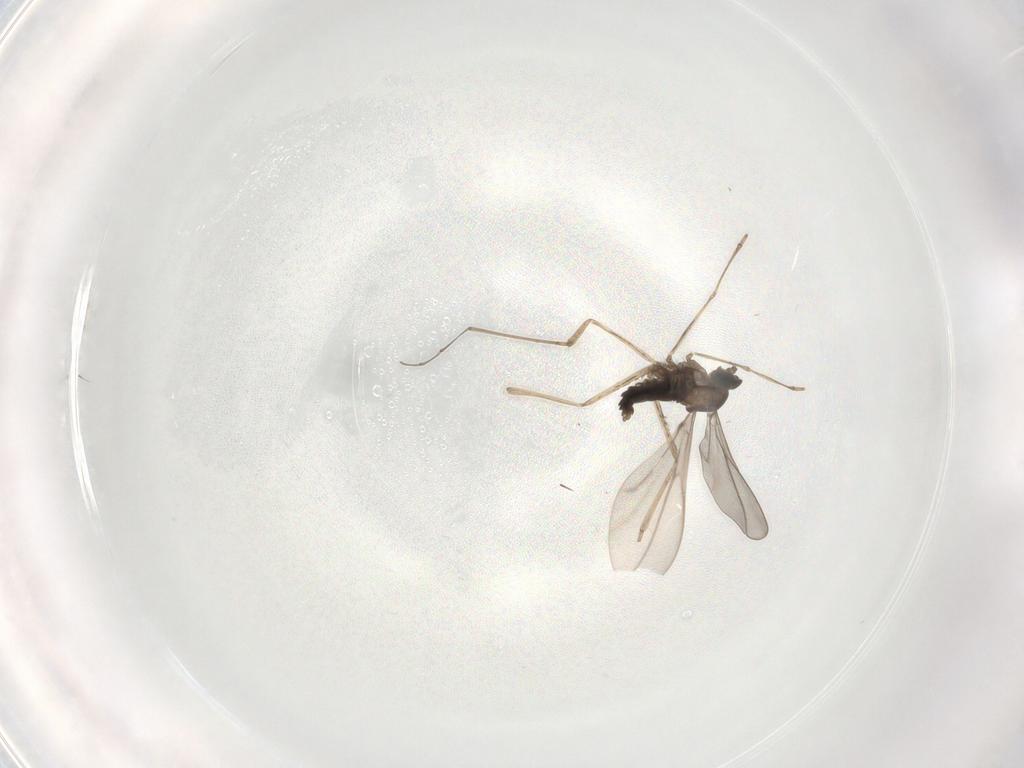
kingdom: Animalia
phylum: Arthropoda
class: Insecta
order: Diptera
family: Cecidomyiidae
